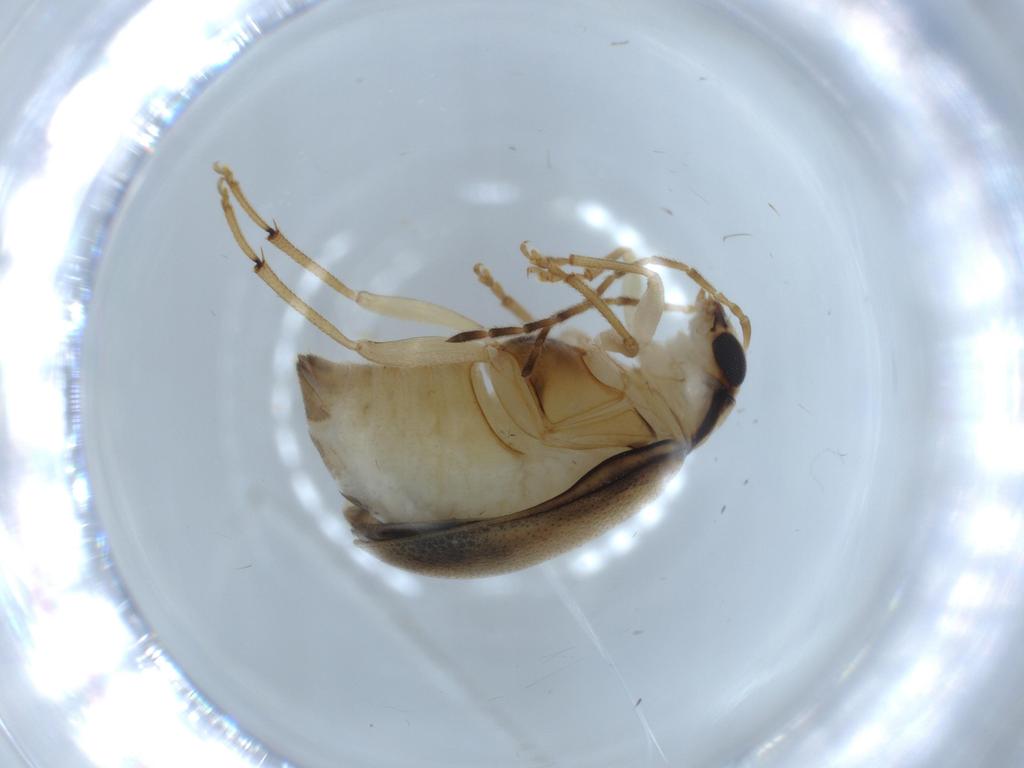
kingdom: Animalia
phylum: Arthropoda
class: Insecta
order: Coleoptera
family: Chrysomelidae
